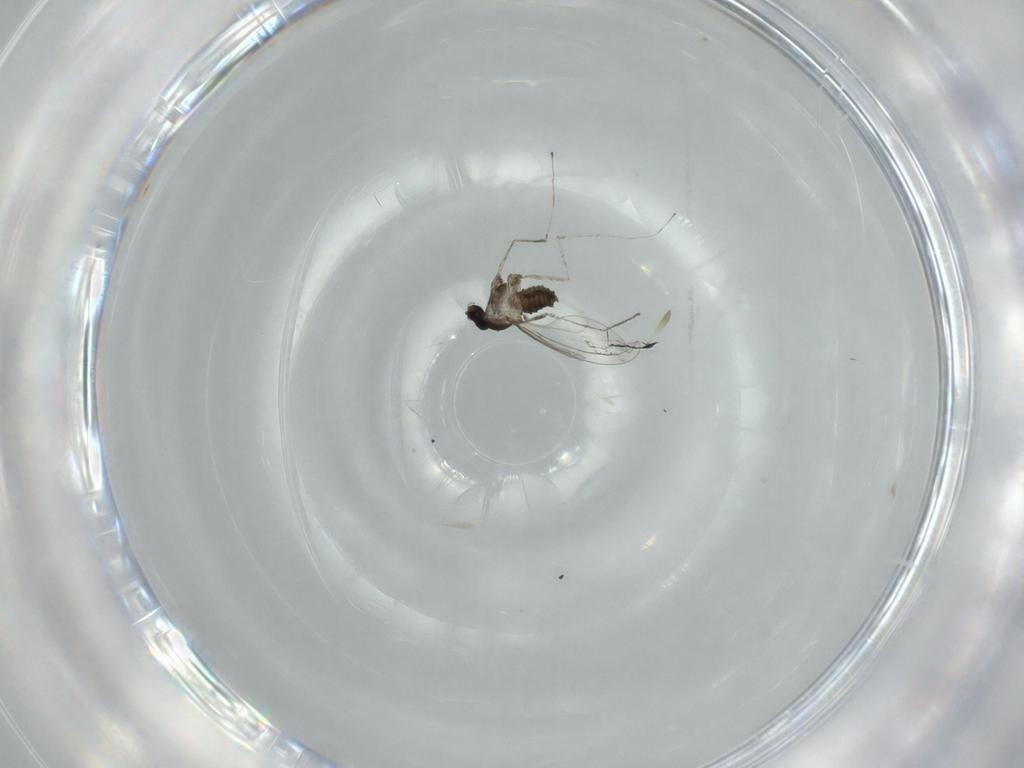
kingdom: Animalia
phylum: Arthropoda
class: Insecta
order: Diptera
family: Cecidomyiidae
